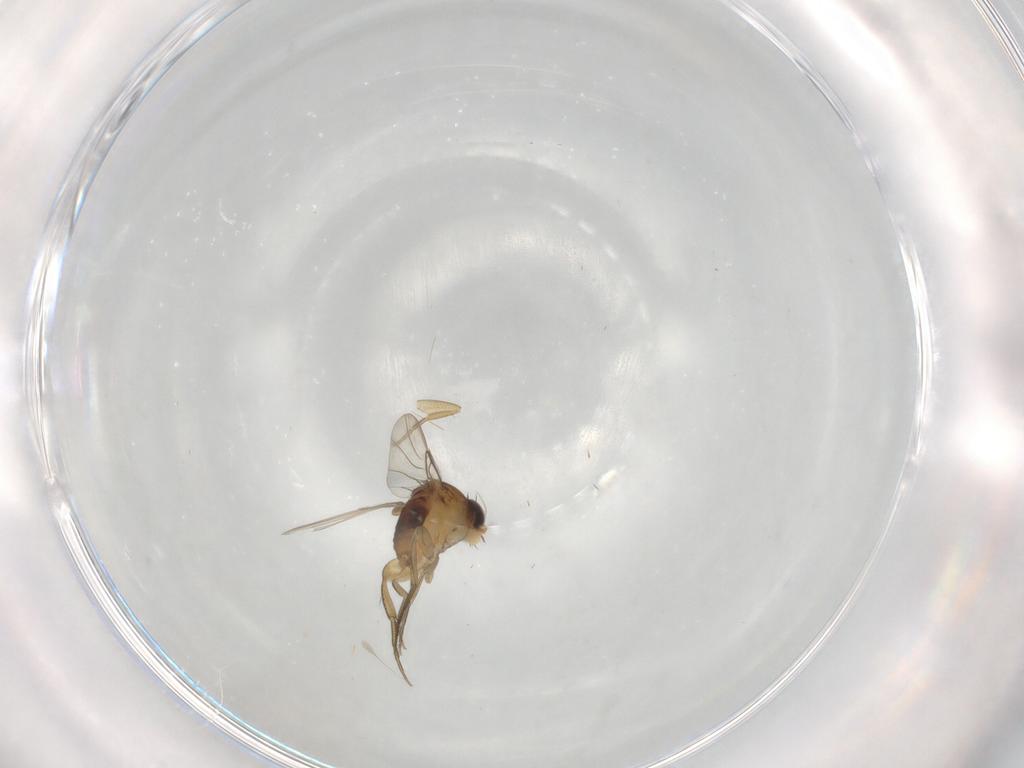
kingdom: Animalia
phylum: Arthropoda
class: Insecta
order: Diptera
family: Phoridae
